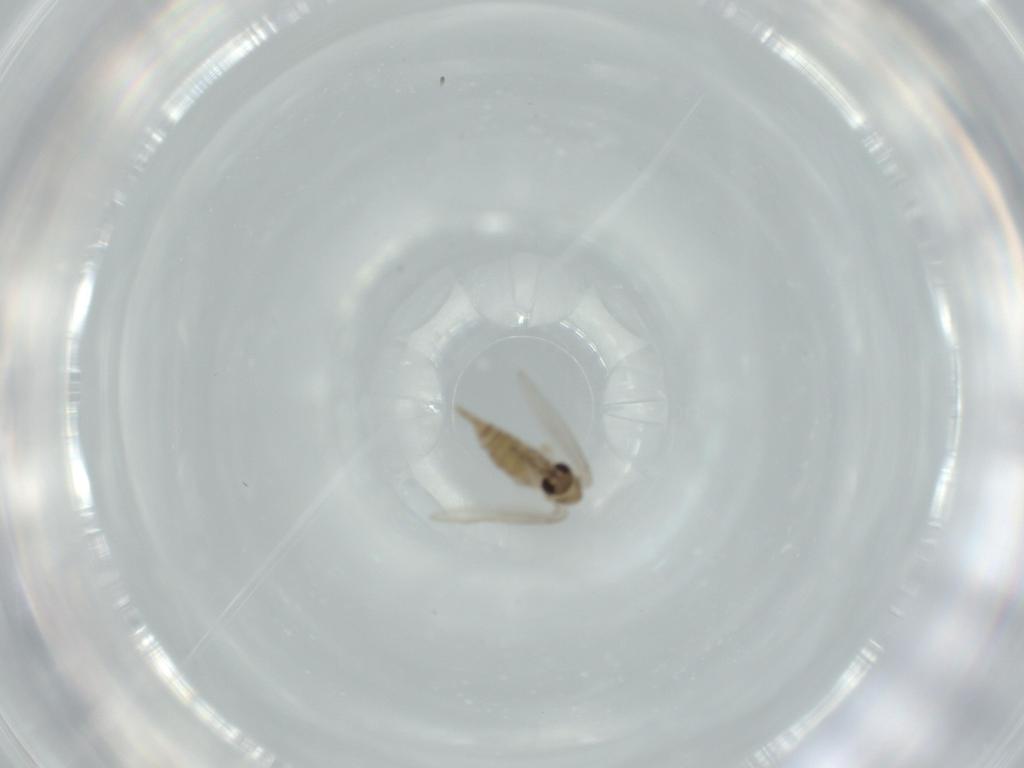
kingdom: Animalia
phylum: Arthropoda
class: Insecta
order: Diptera
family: Psychodidae
